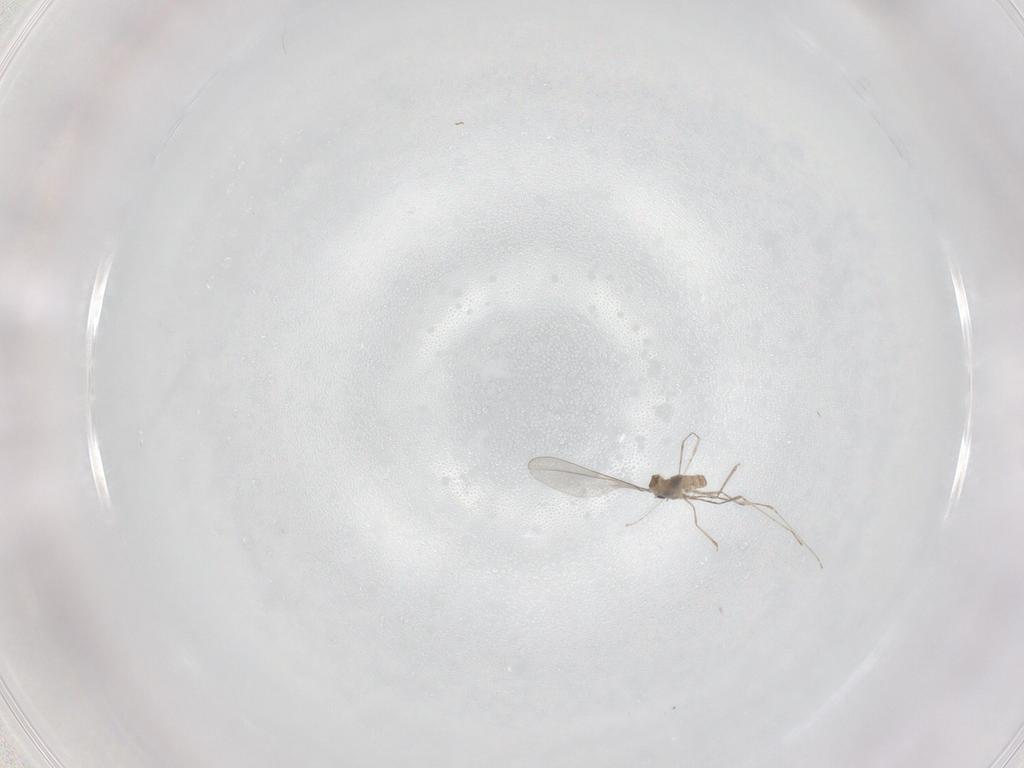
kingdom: Animalia
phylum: Arthropoda
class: Insecta
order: Diptera
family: Cecidomyiidae
